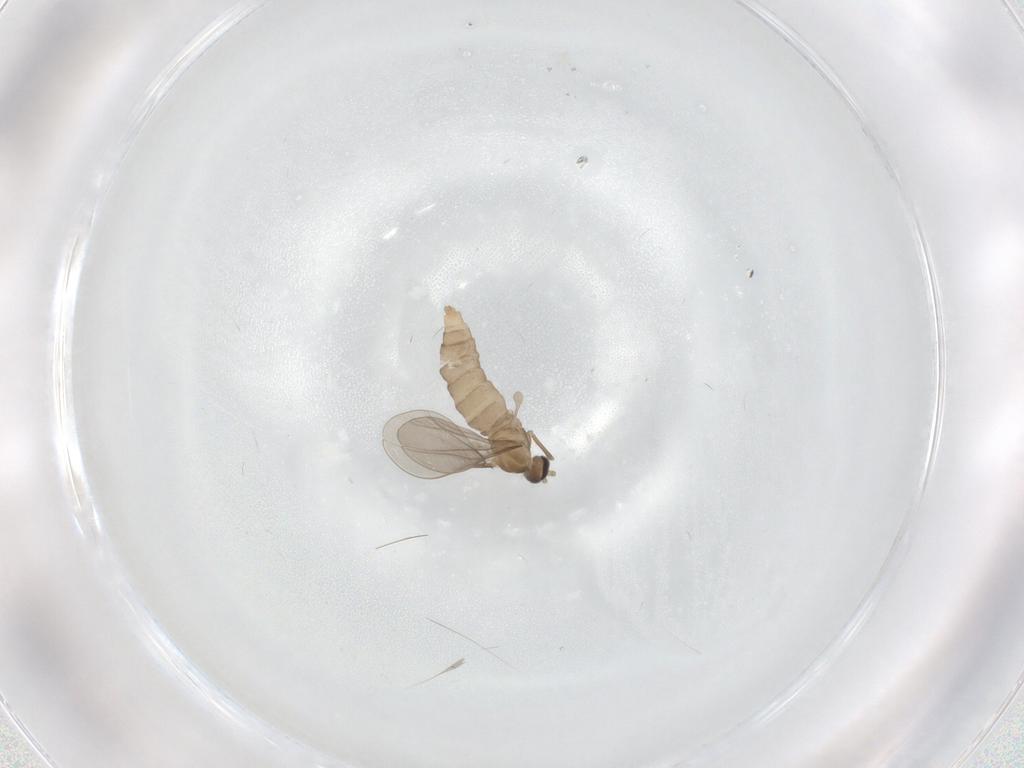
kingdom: Animalia
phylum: Arthropoda
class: Insecta
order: Diptera
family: Cecidomyiidae
